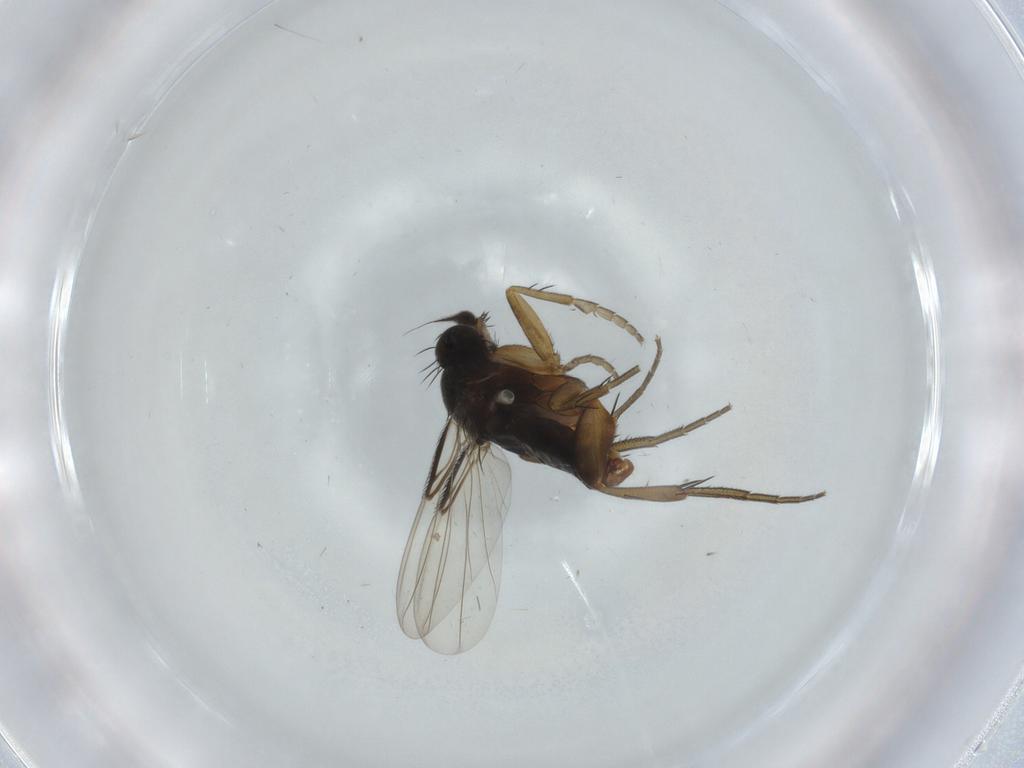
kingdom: Animalia
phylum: Arthropoda
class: Insecta
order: Diptera
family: Phoridae
